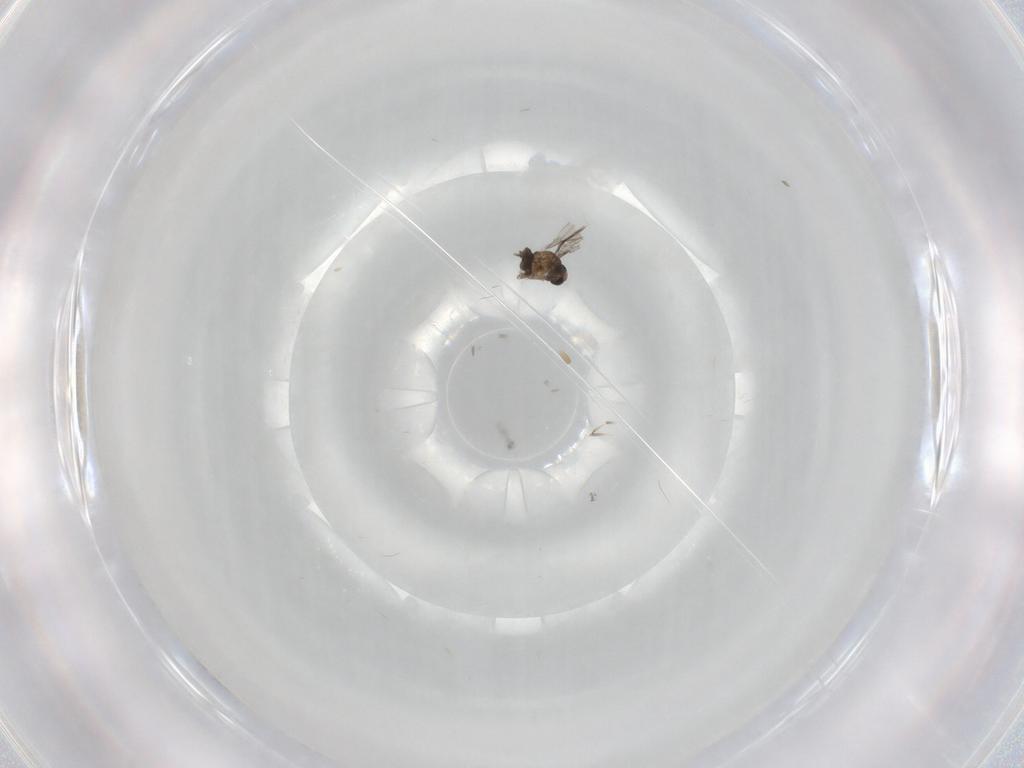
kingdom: Animalia
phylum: Arthropoda
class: Insecta
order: Diptera
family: Cecidomyiidae
